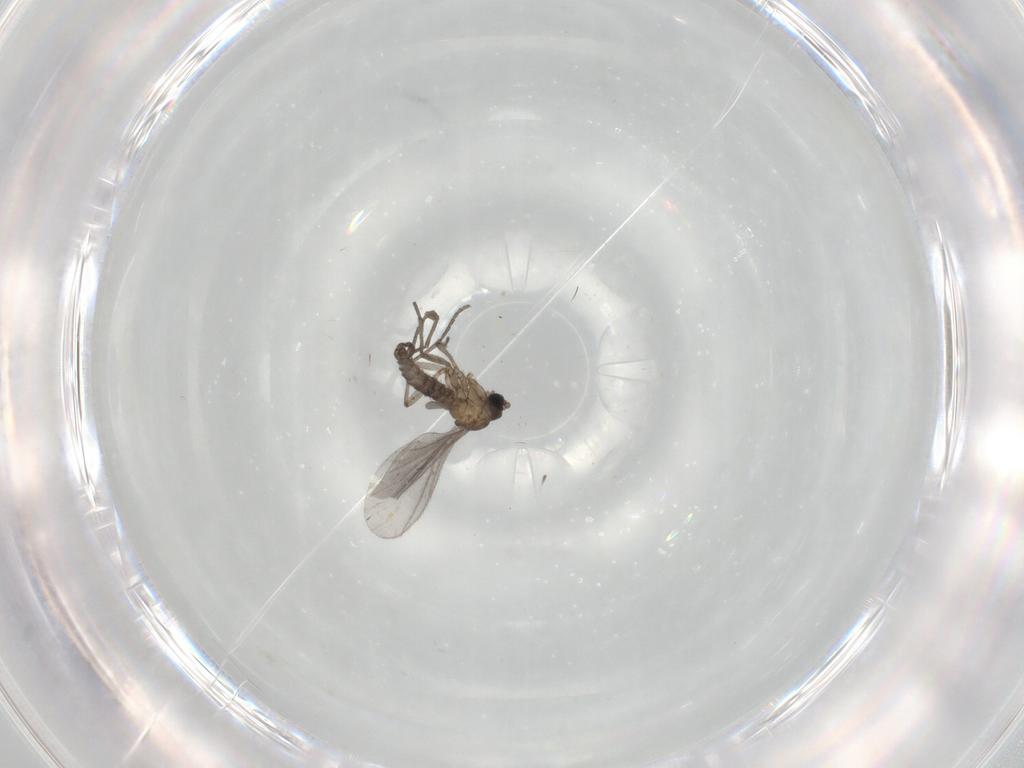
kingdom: Animalia
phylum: Arthropoda
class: Insecta
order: Diptera
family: Sciaridae
